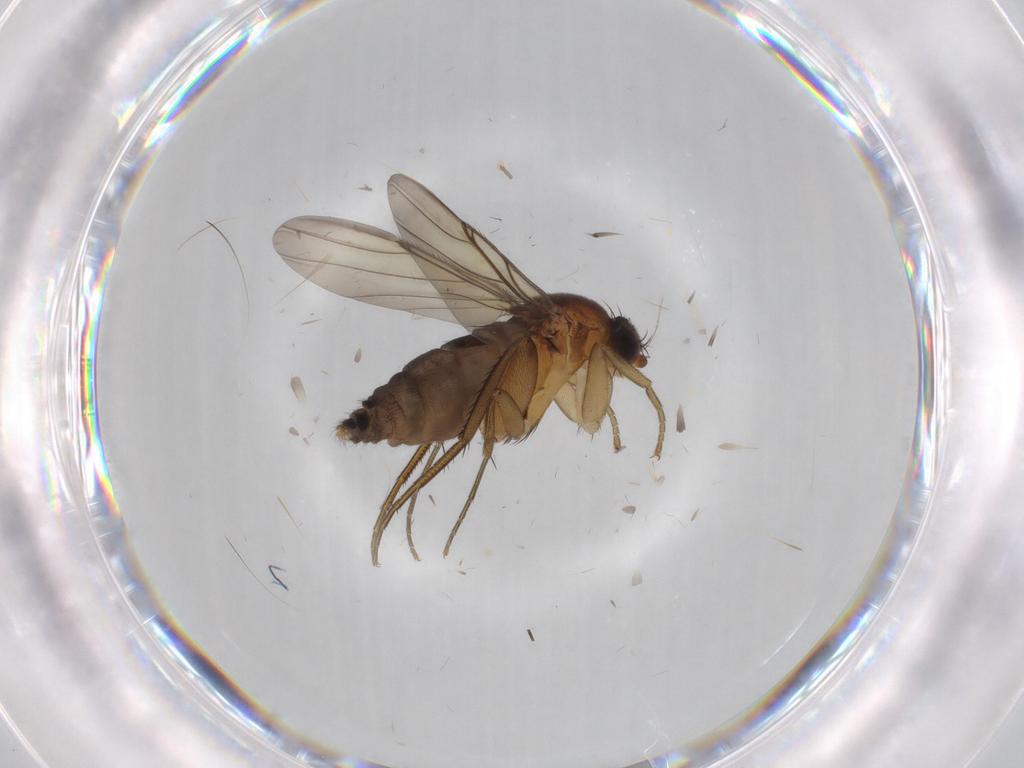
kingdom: Animalia
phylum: Arthropoda
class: Insecta
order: Diptera
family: Phoridae
